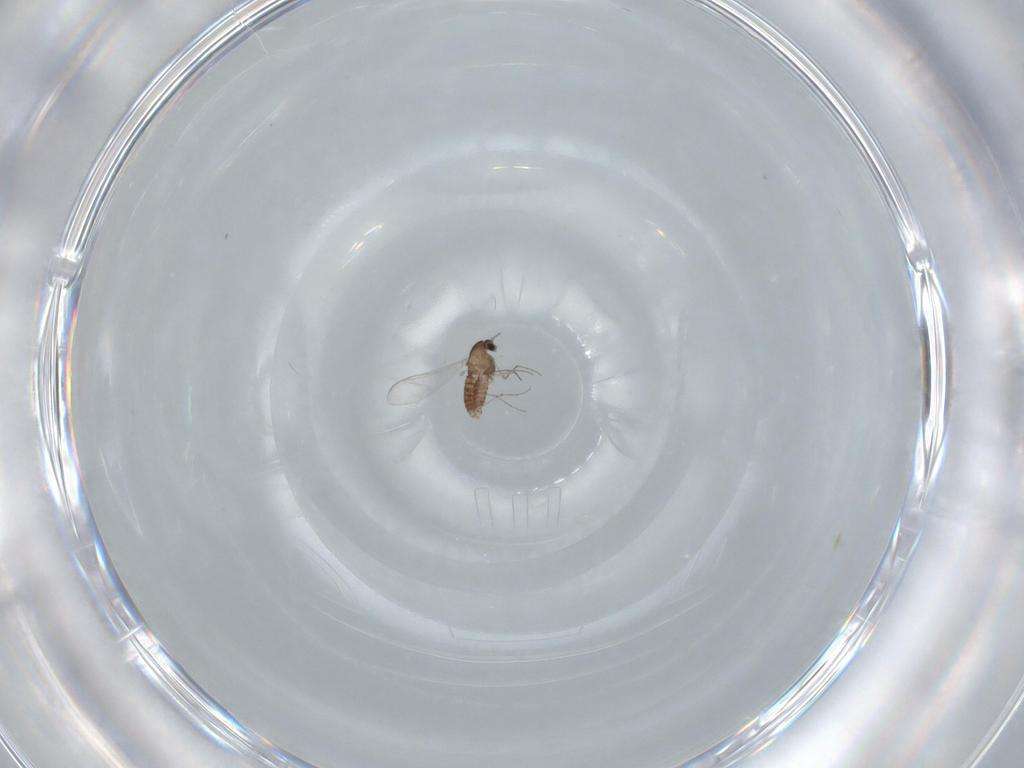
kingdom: Animalia
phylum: Arthropoda
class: Insecta
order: Diptera
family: Chironomidae
